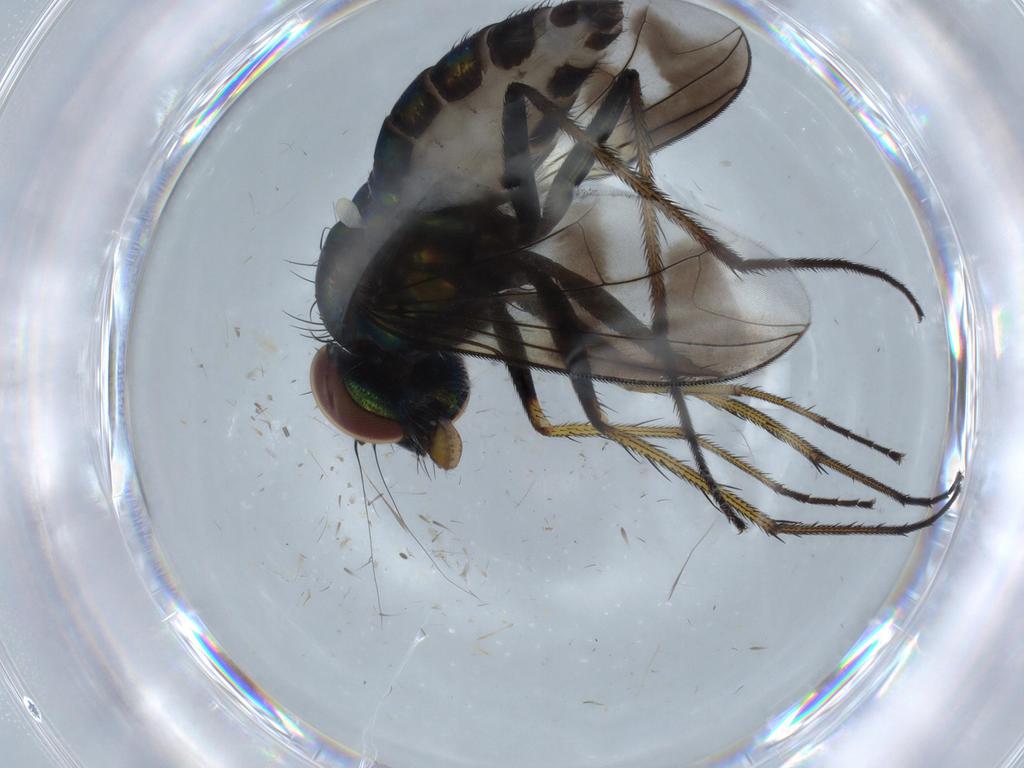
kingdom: Animalia
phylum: Arthropoda
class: Insecta
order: Diptera
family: Dolichopodidae
